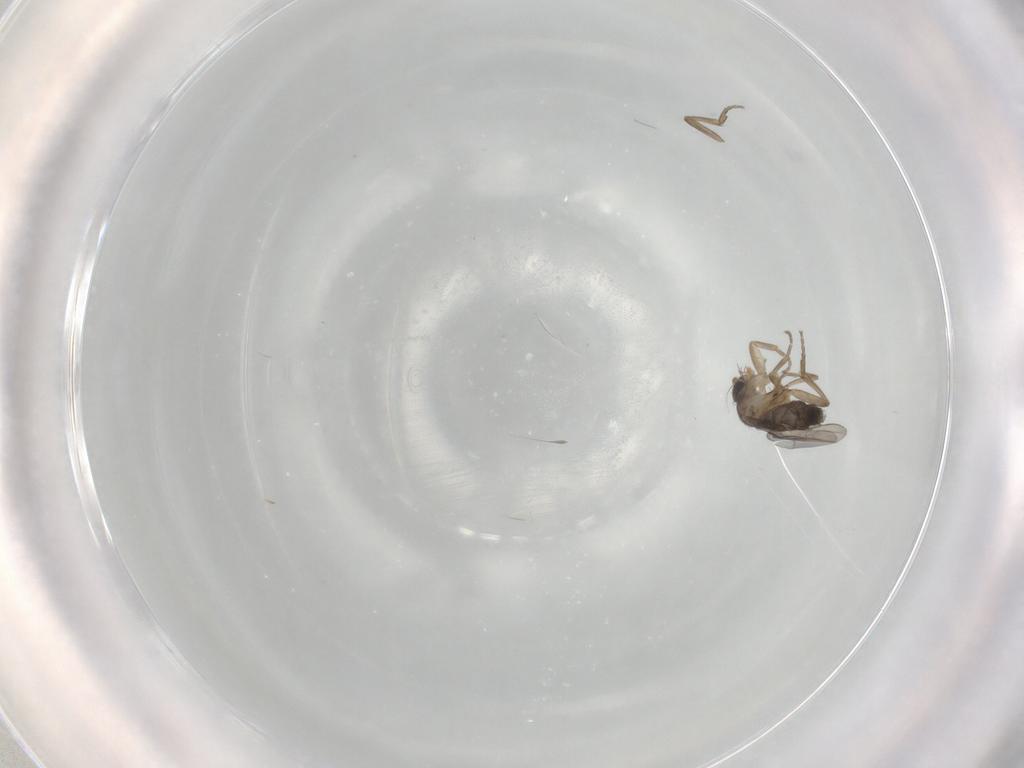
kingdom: Animalia
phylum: Arthropoda
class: Insecta
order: Diptera
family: Phoridae
